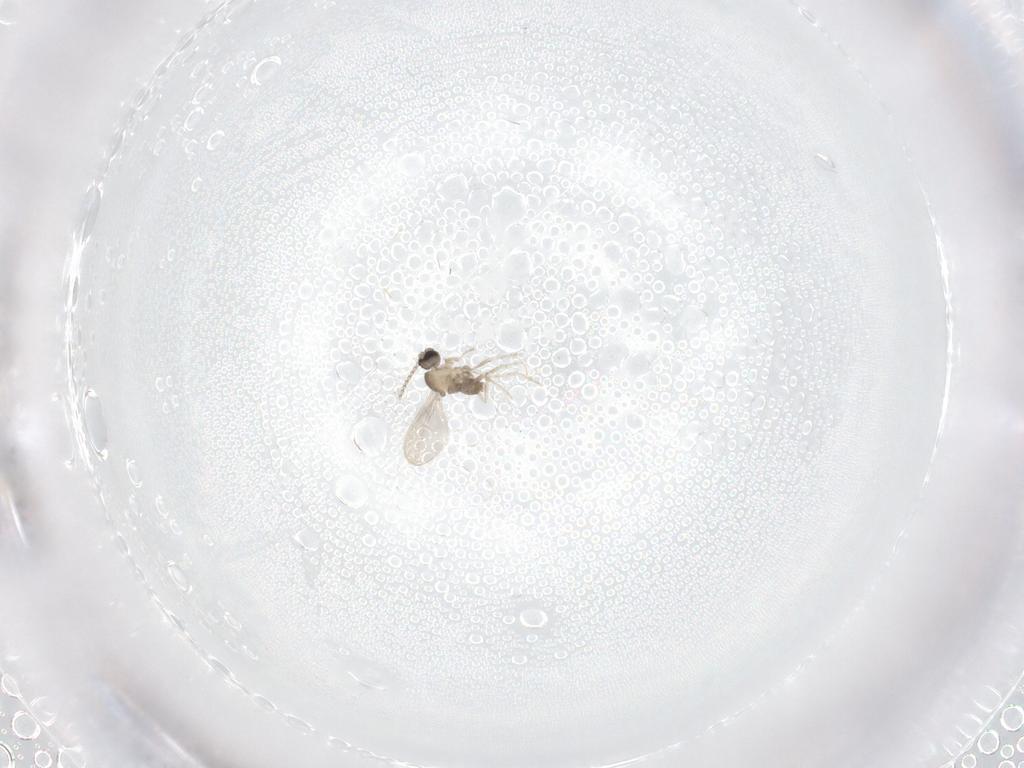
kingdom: Animalia
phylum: Arthropoda
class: Insecta
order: Diptera
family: Cecidomyiidae
